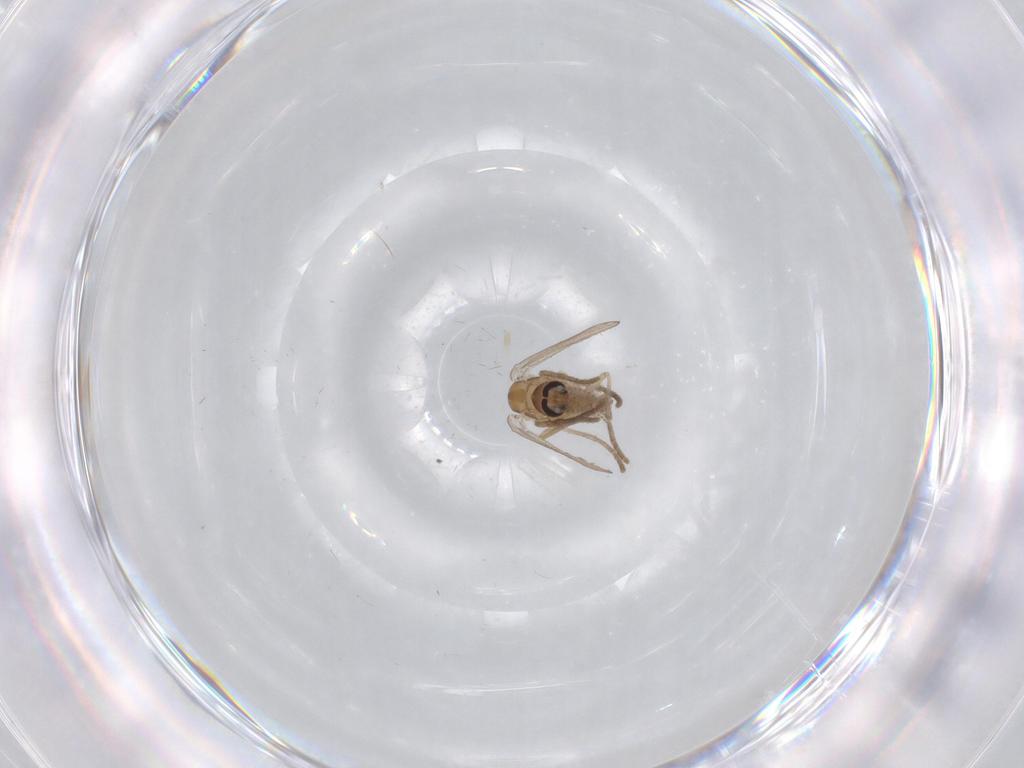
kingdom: Animalia
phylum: Arthropoda
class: Insecta
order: Diptera
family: Psychodidae
